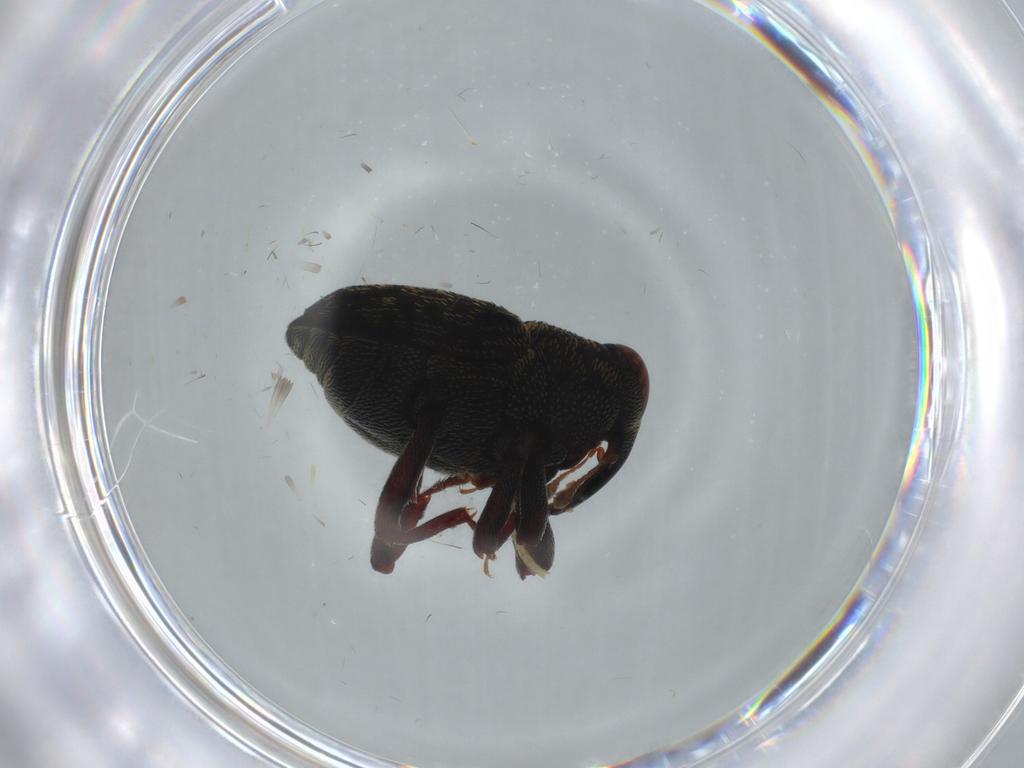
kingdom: Animalia
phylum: Arthropoda
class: Insecta
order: Coleoptera
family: Curculionidae
